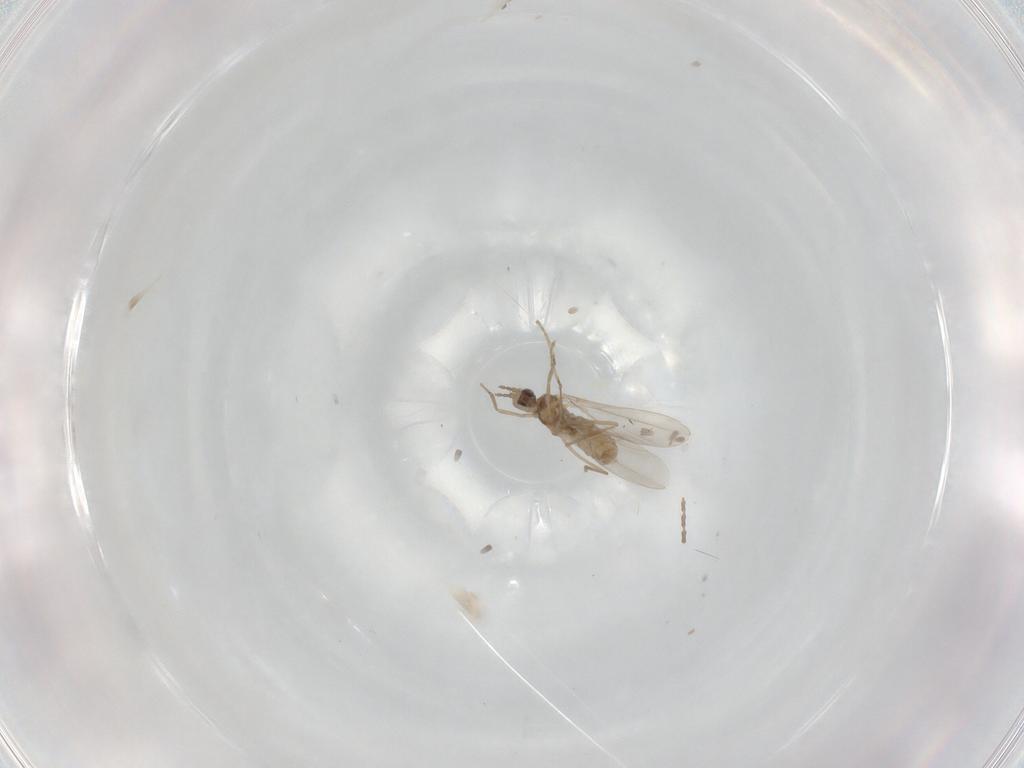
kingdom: Animalia
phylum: Arthropoda
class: Insecta
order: Diptera
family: Cecidomyiidae
